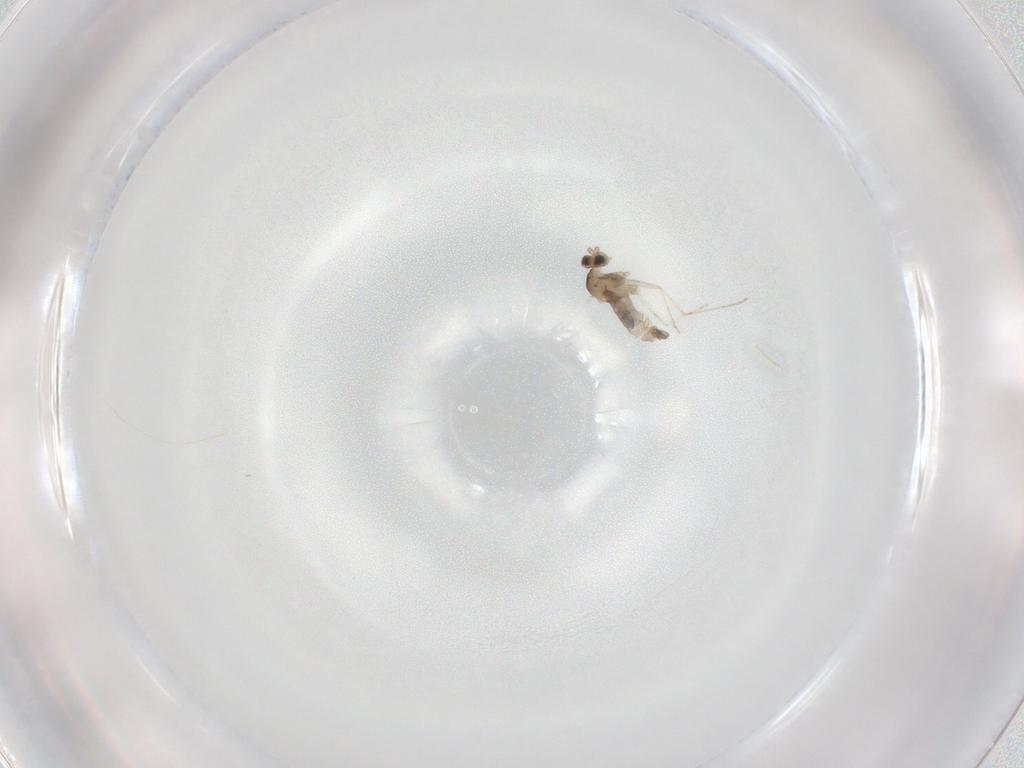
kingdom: Animalia
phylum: Arthropoda
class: Insecta
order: Diptera
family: Cecidomyiidae
